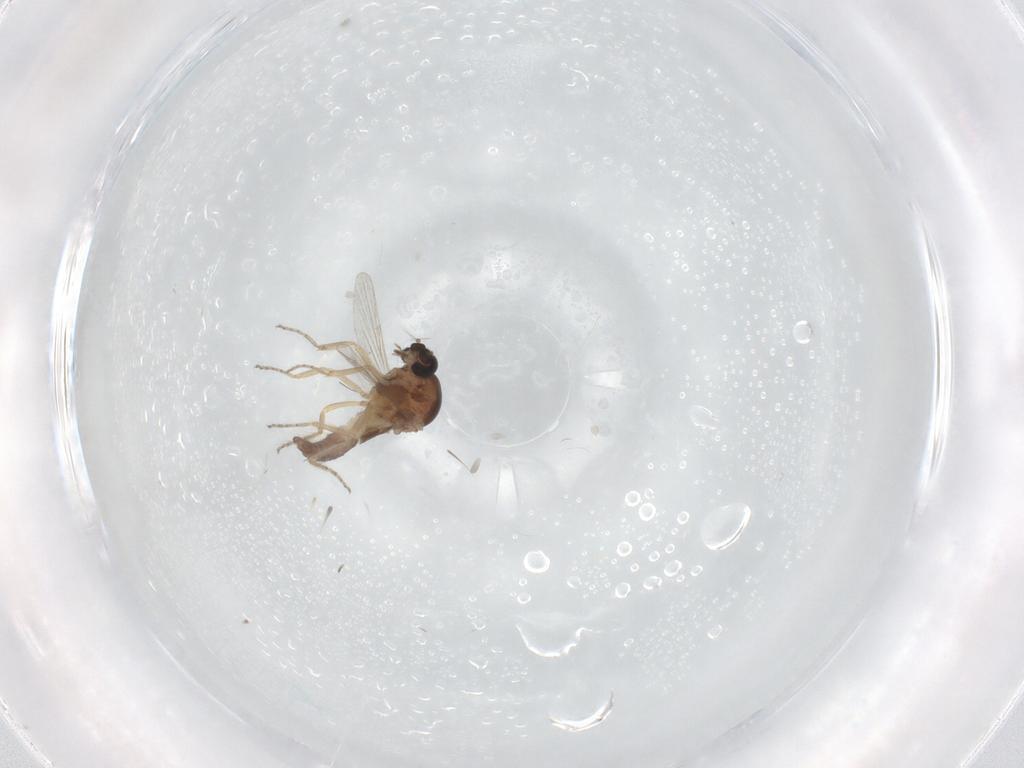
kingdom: Animalia
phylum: Arthropoda
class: Insecta
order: Diptera
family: Ceratopogonidae
